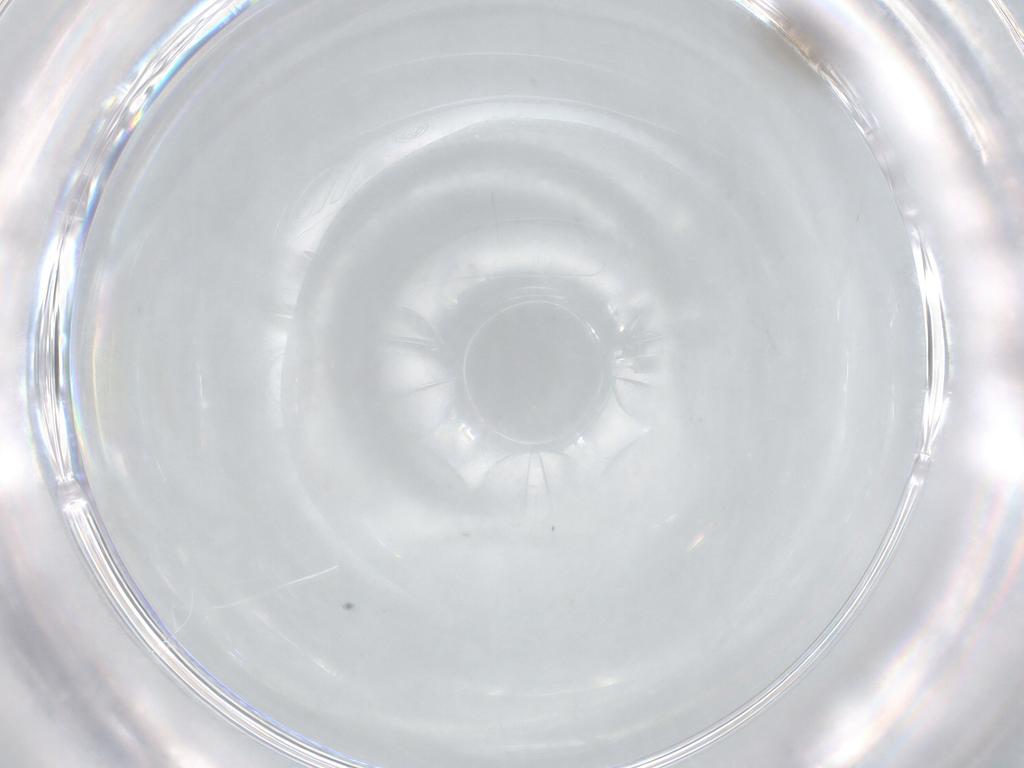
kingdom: Animalia
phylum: Arthropoda
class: Insecta
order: Diptera
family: Sciaridae
